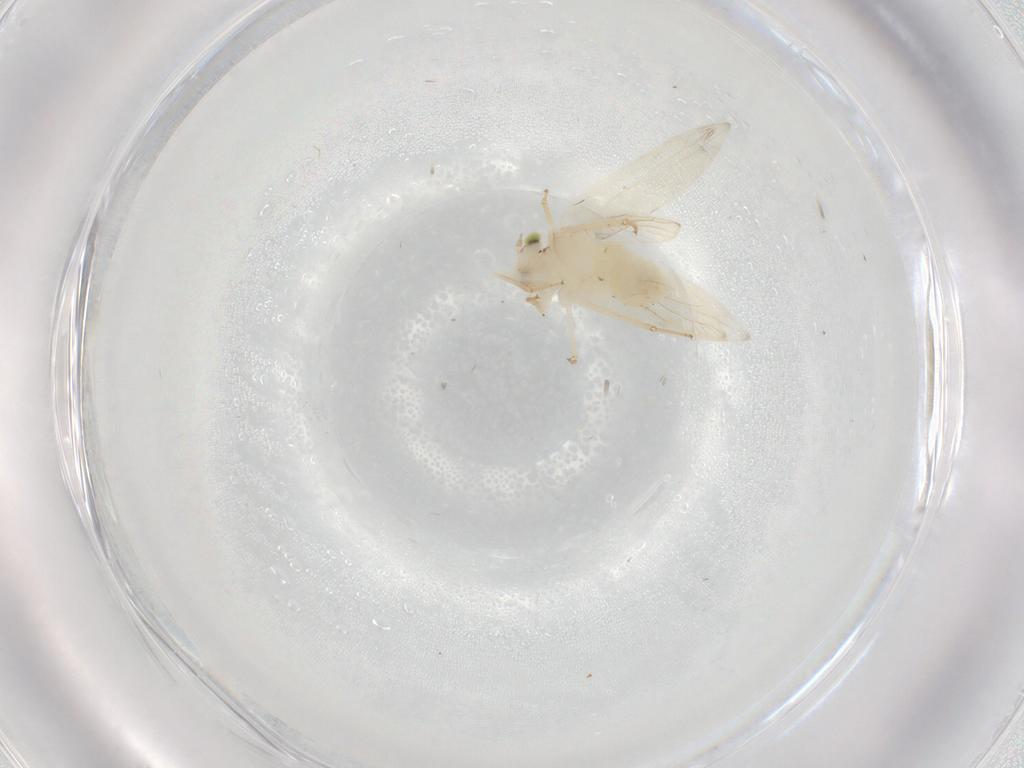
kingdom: Animalia
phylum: Arthropoda
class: Insecta
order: Psocodea
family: Lepidopsocidae
